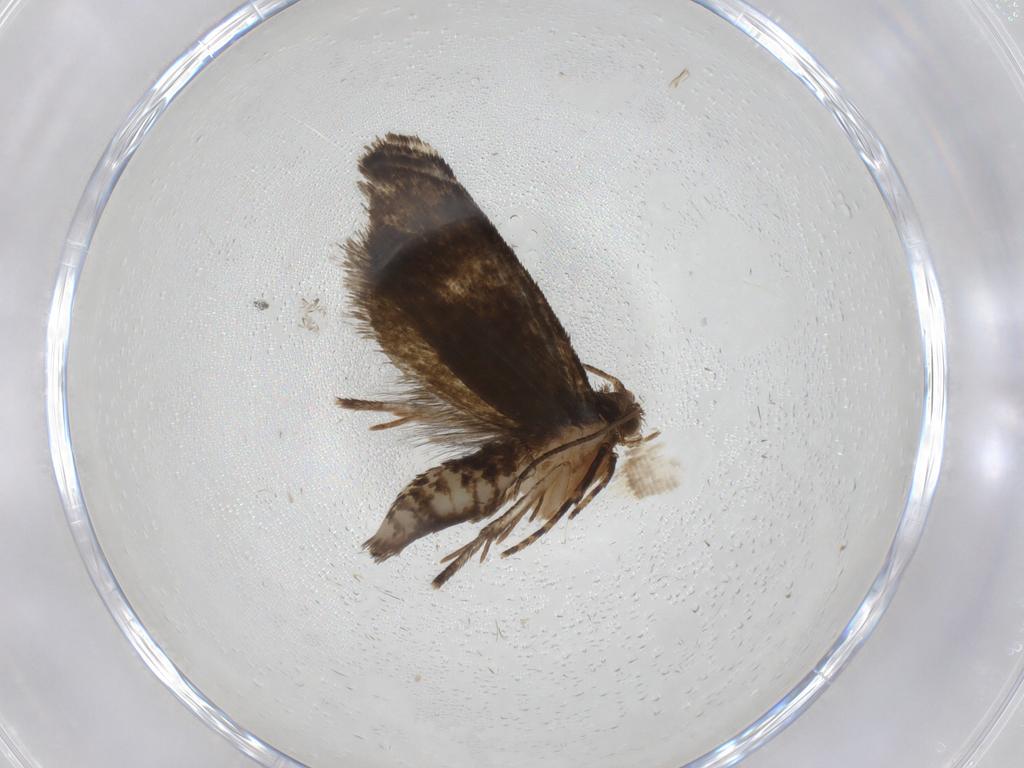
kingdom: Animalia
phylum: Arthropoda
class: Insecta
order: Lepidoptera
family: Crambidae
